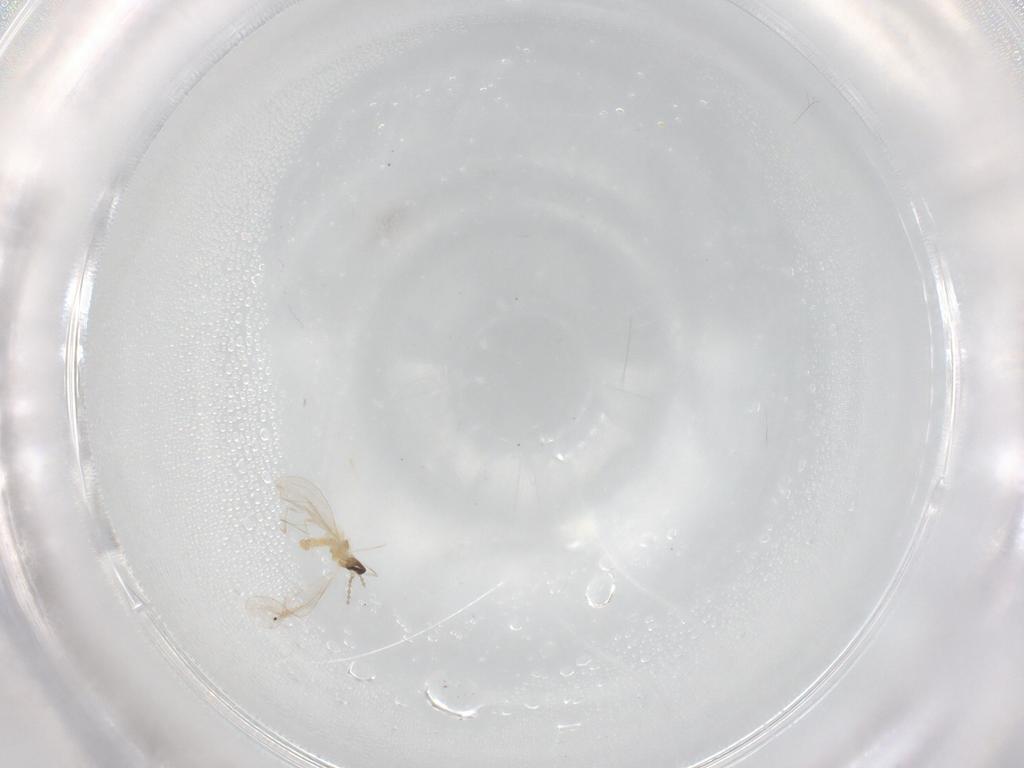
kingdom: Animalia
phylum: Arthropoda
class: Insecta
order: Diptera
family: Cecidomyiidae
